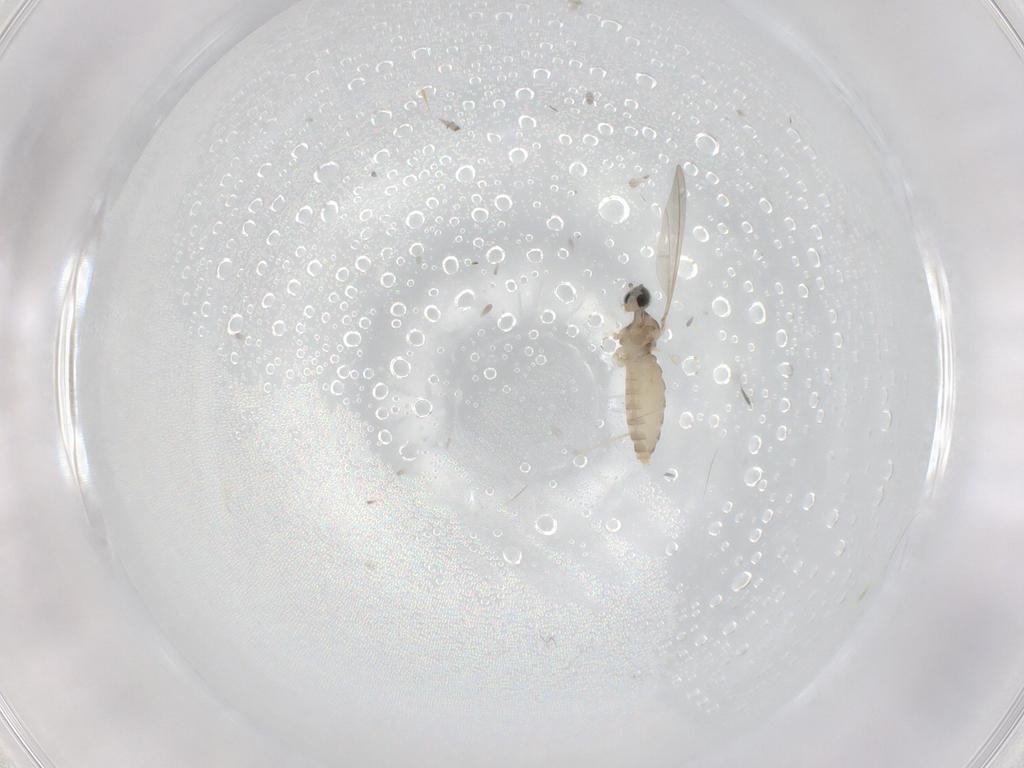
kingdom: Animalia
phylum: Arthropoda
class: Insecta
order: Diptera
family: Cecidomyiidae
